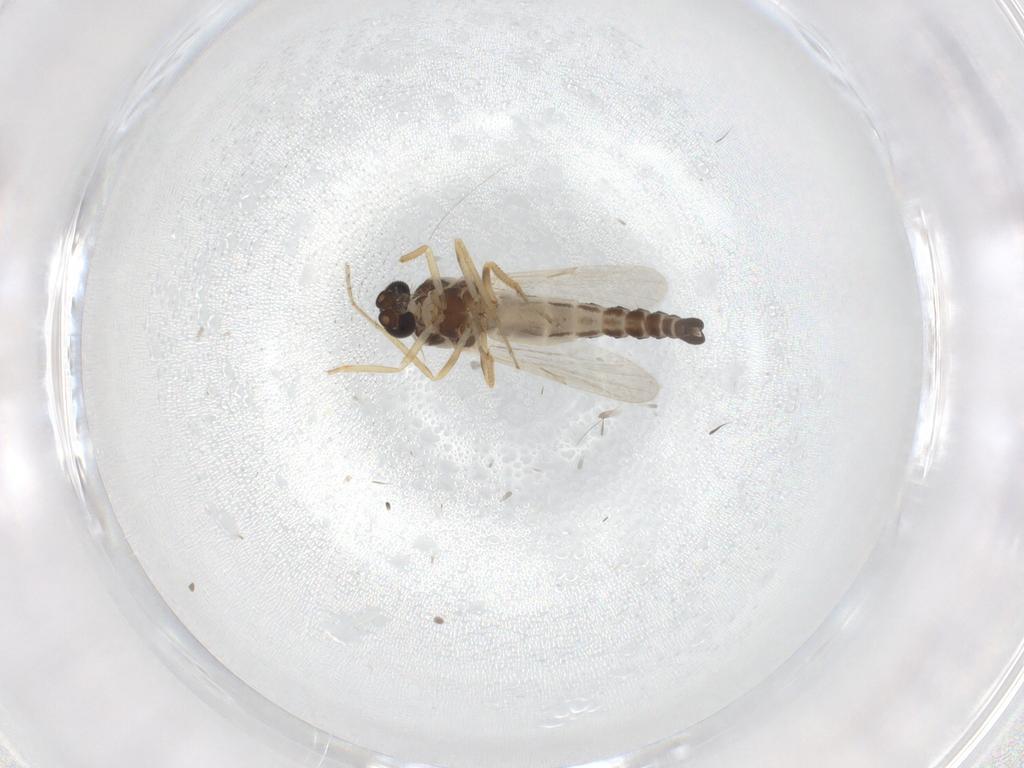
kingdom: Animalia
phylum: Arthropoda
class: Insecta
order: Diptera
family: Ceratopogonidae
